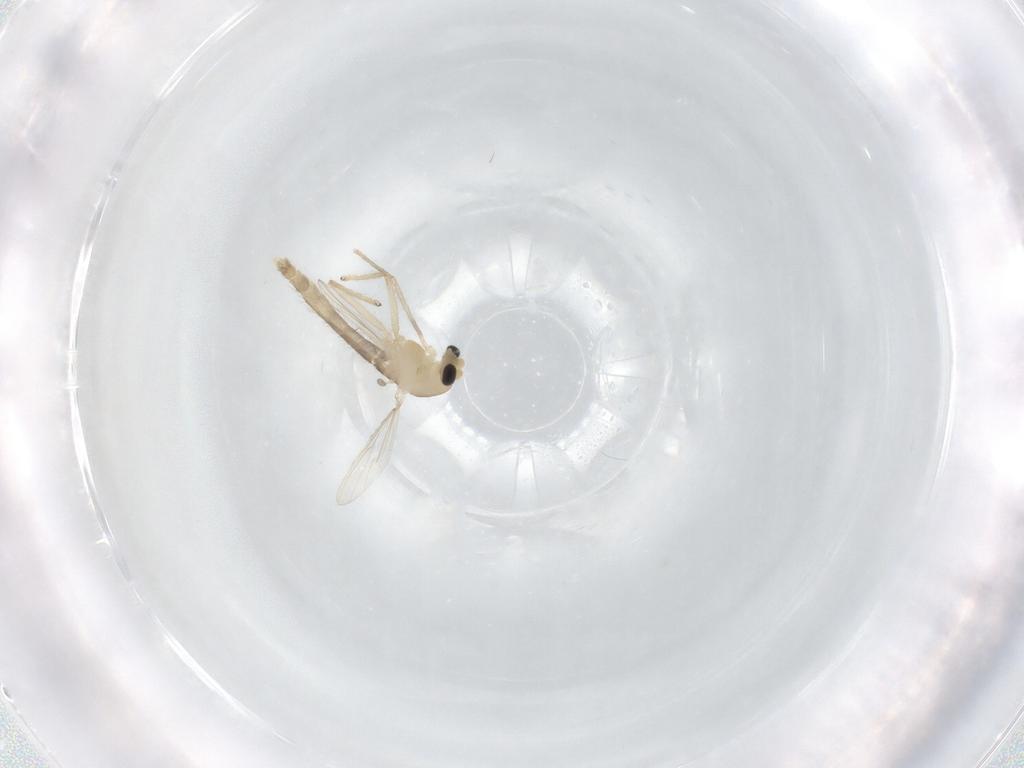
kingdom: Animalia
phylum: Arthropoda
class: Insecta
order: Diptera
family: Chironomidae
